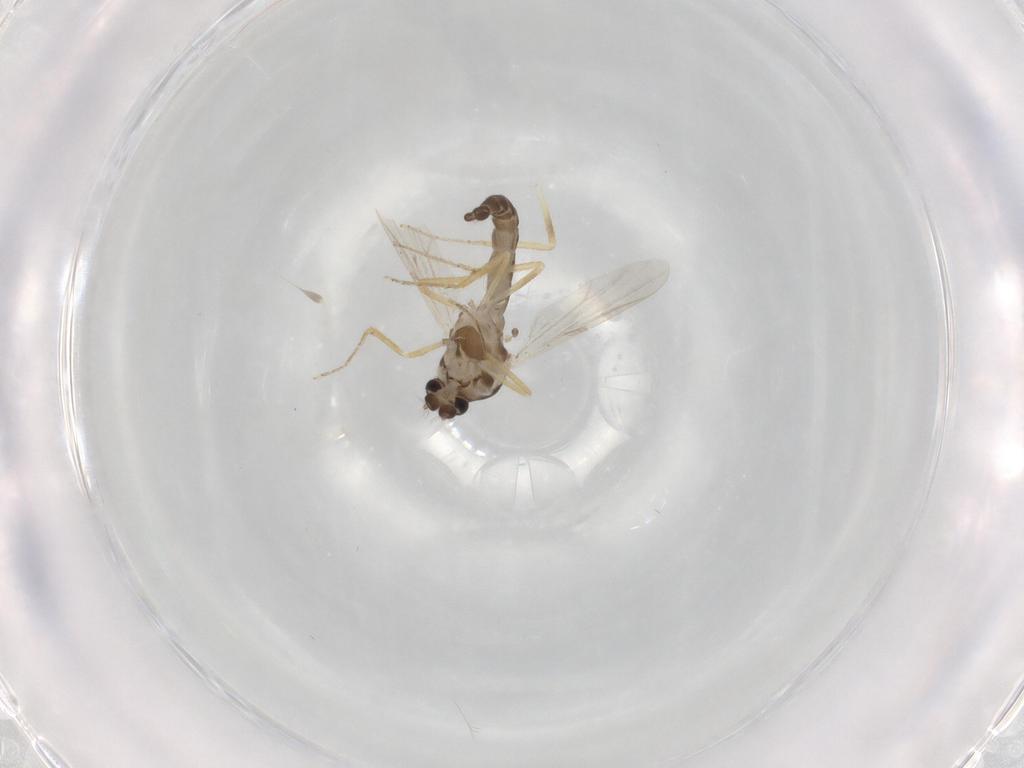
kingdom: Animalia
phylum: Arthropoda
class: Insecta
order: Diptera
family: Ceratopogonidae
